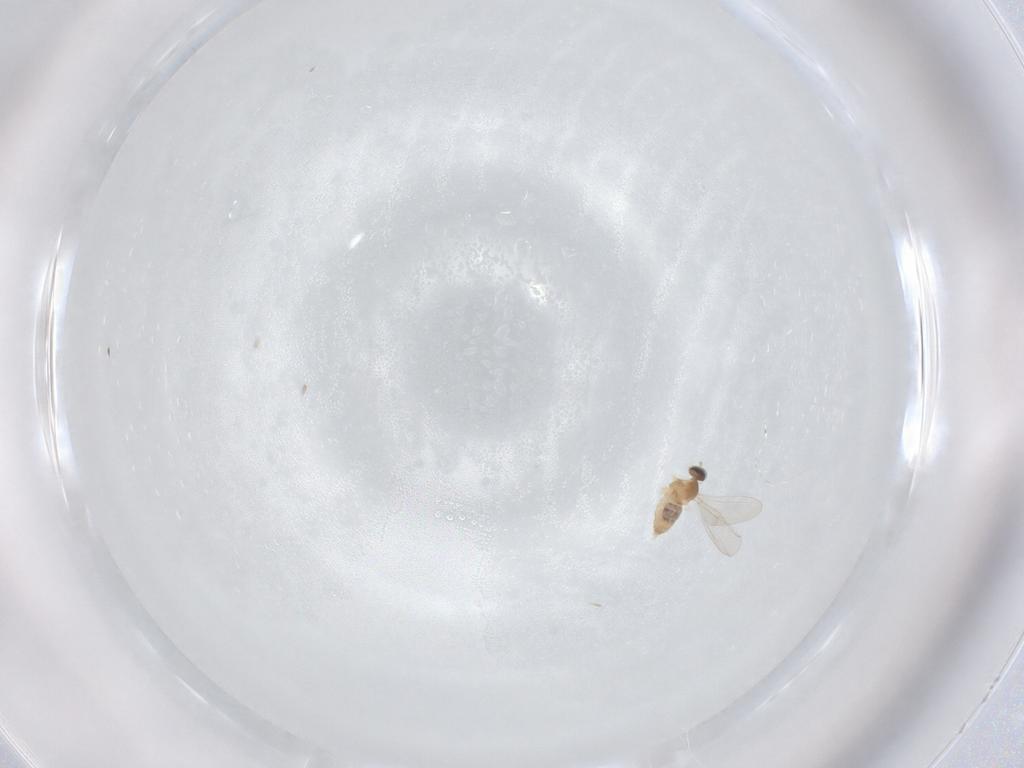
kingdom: Animalia
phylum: Arthropoda
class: Insecta
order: Diptera
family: Cecidomyiidae
